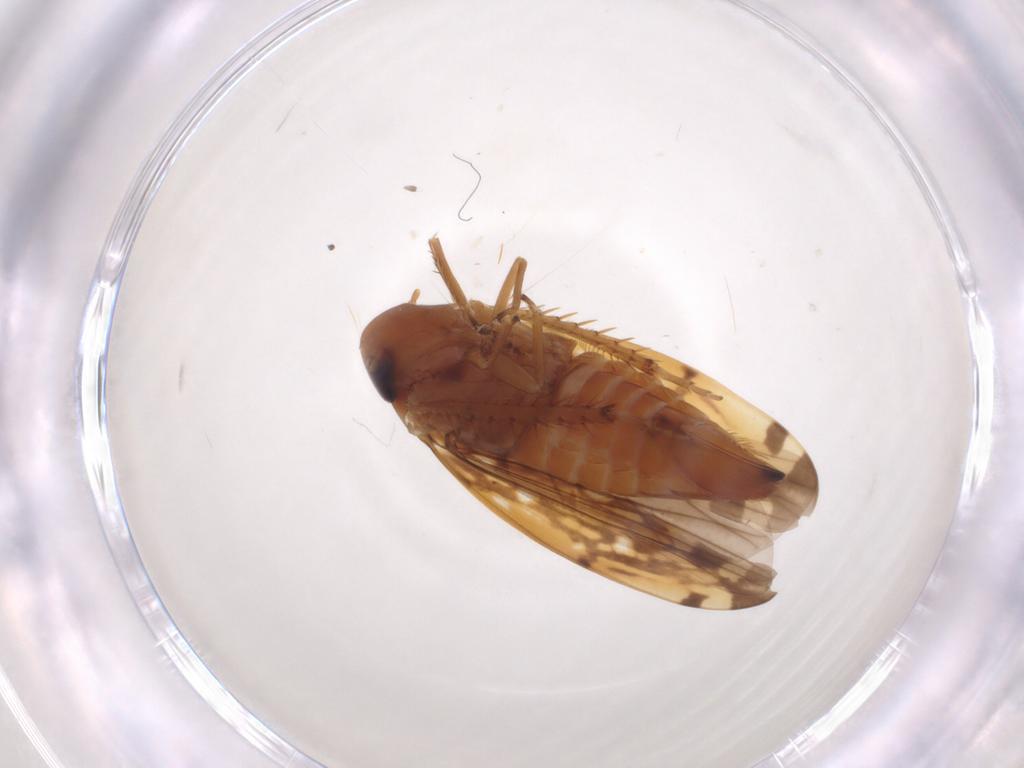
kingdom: Animalia
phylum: Arthropoda
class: Insecta
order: Hemiptera
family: Cicadellidae
